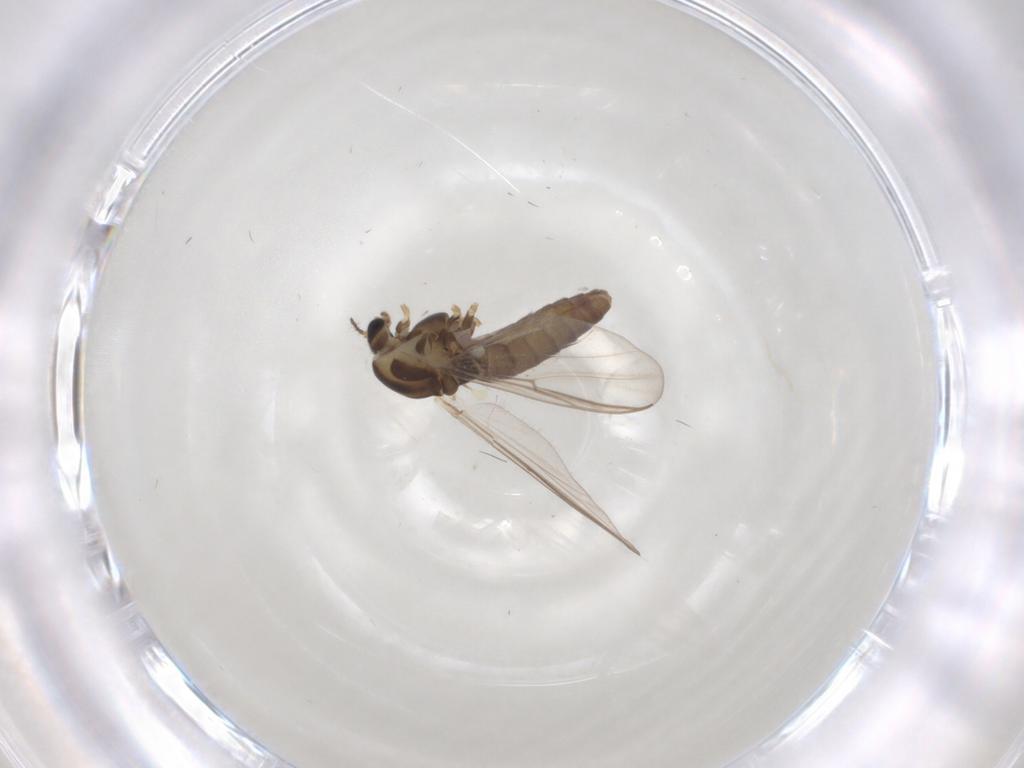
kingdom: Animalia
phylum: Arthropoda
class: Insecta
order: Diptera
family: Chironomidae
